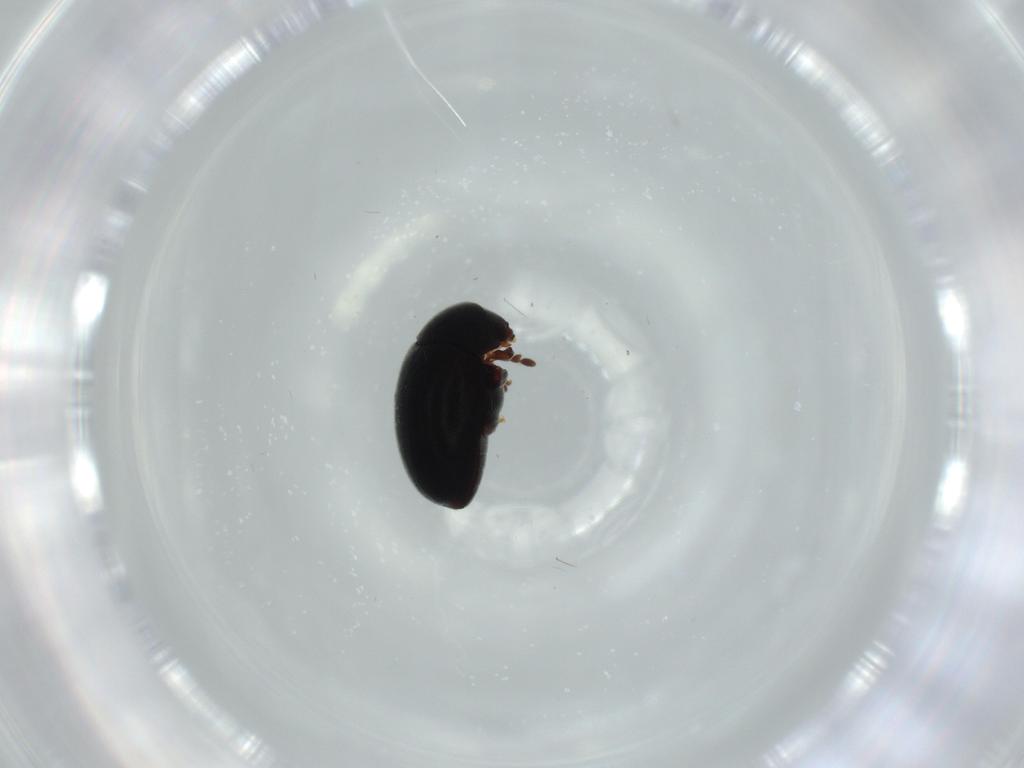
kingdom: Animalia
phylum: Arthropoda
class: Insecta
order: Coleoptera
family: Ptinidae
